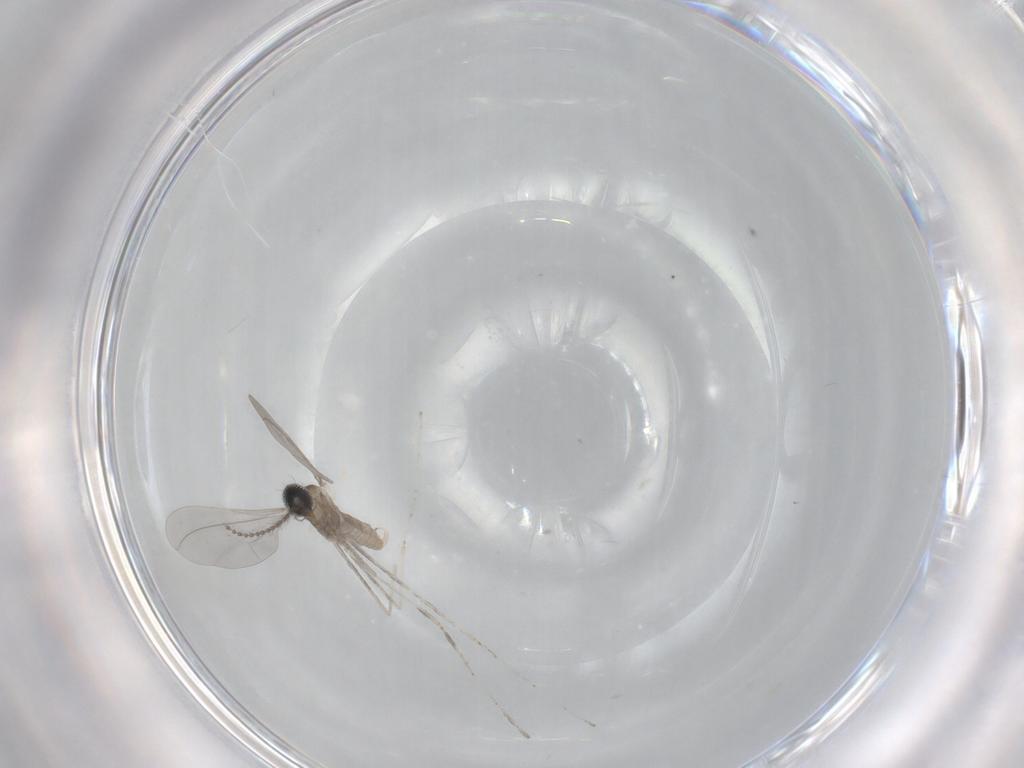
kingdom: Animalia
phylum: Arthropoda
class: Insecta
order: Diptera
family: Cecidomyiidae
